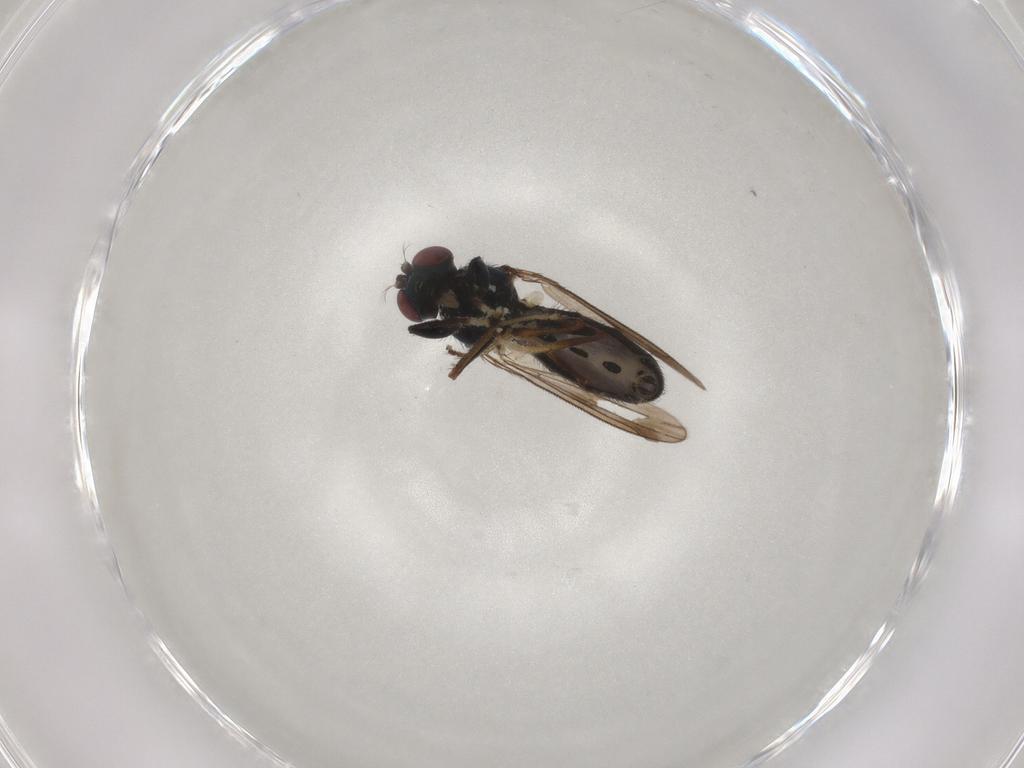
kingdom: Animalia
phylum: Arthropoda
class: Insecta
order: Diptera
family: Ephydridae
